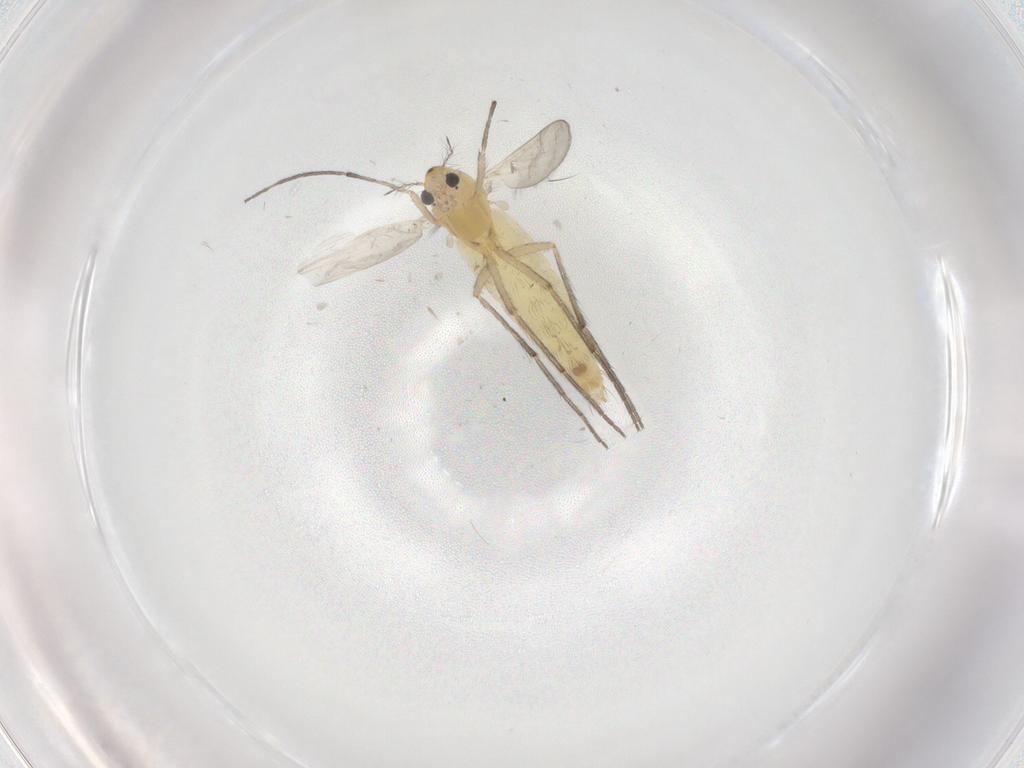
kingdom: Animalia
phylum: Arthropoda
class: Insecta
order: Diptera
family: Chironomidae
